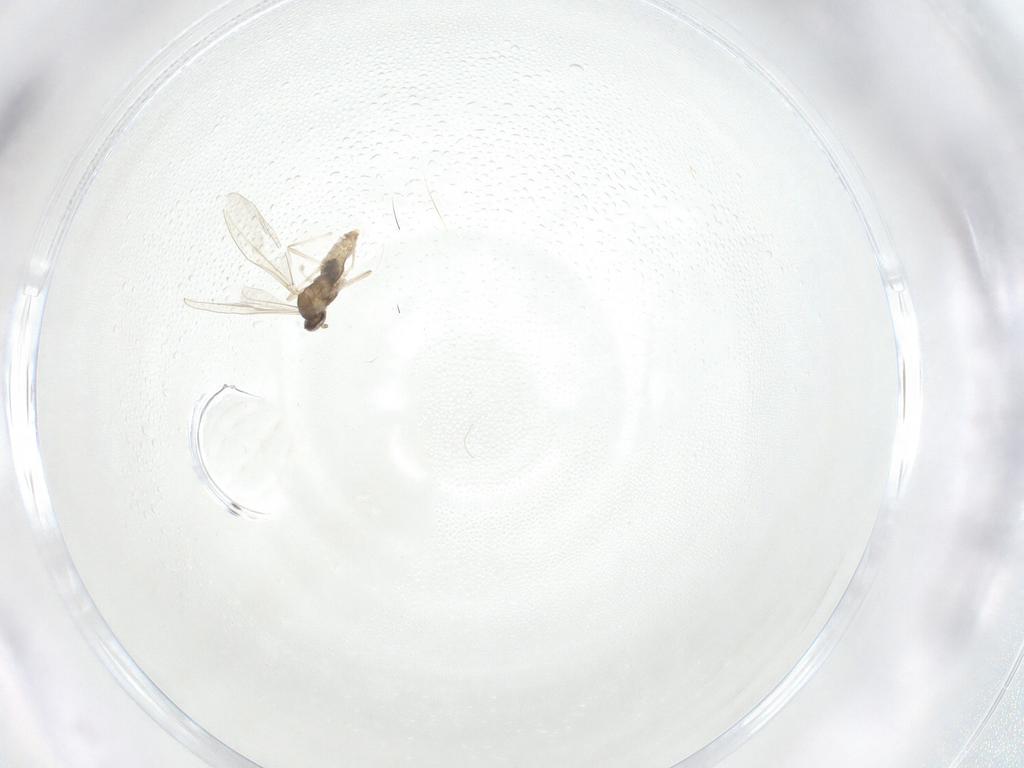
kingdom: Animalia
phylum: Arthropoda
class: Insecta
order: Diptera
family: Cecidomyiidae
